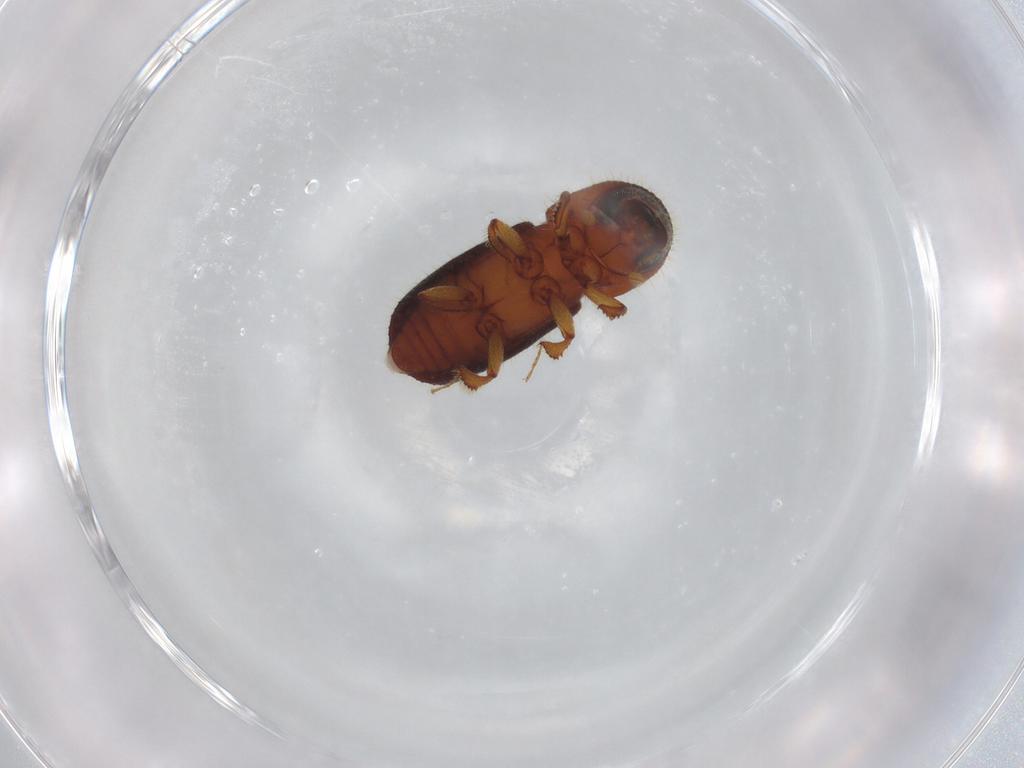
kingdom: Animalia
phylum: Arthropoda
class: Insecta
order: Coleoptera
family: Curculionidae
